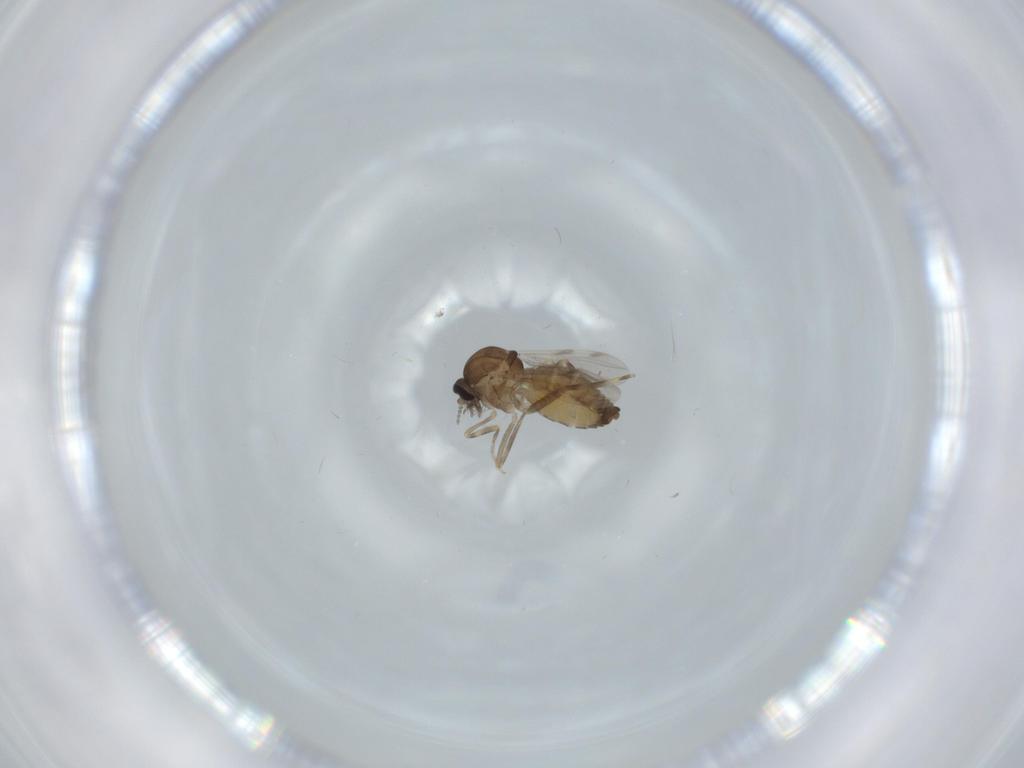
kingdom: Animalia
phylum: Arthropoda
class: Insecta
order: Diptera
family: Ceratopogonidae
